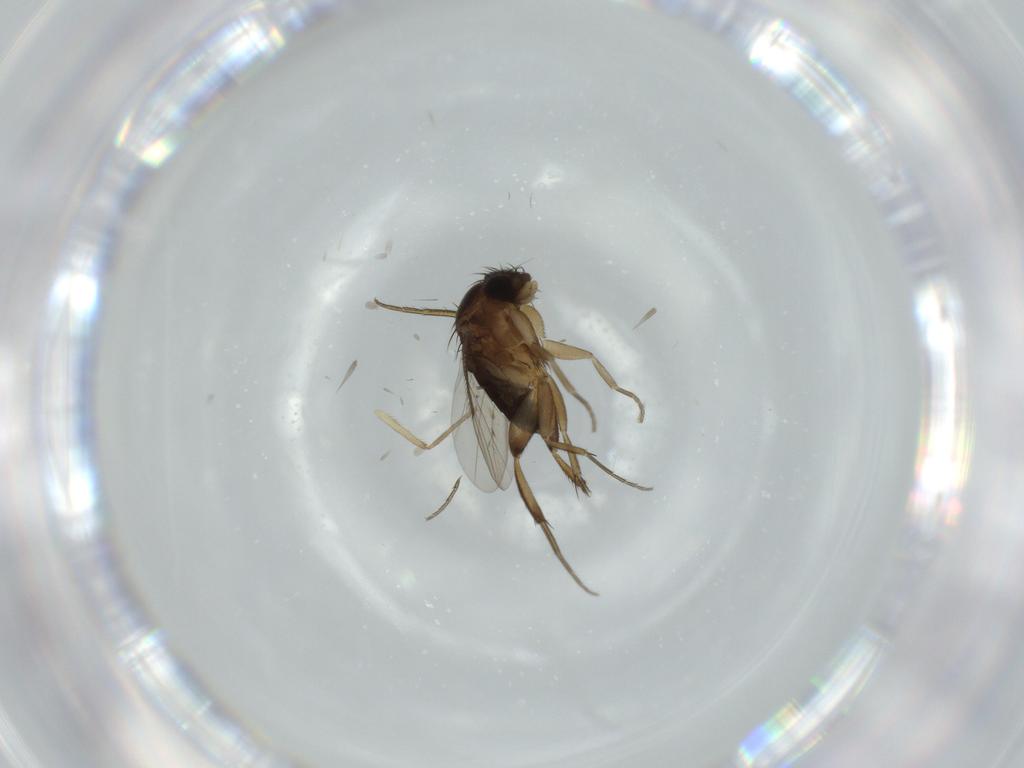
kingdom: Animalia
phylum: Arthropoda
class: Insecta
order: Diptera
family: Phoridae
